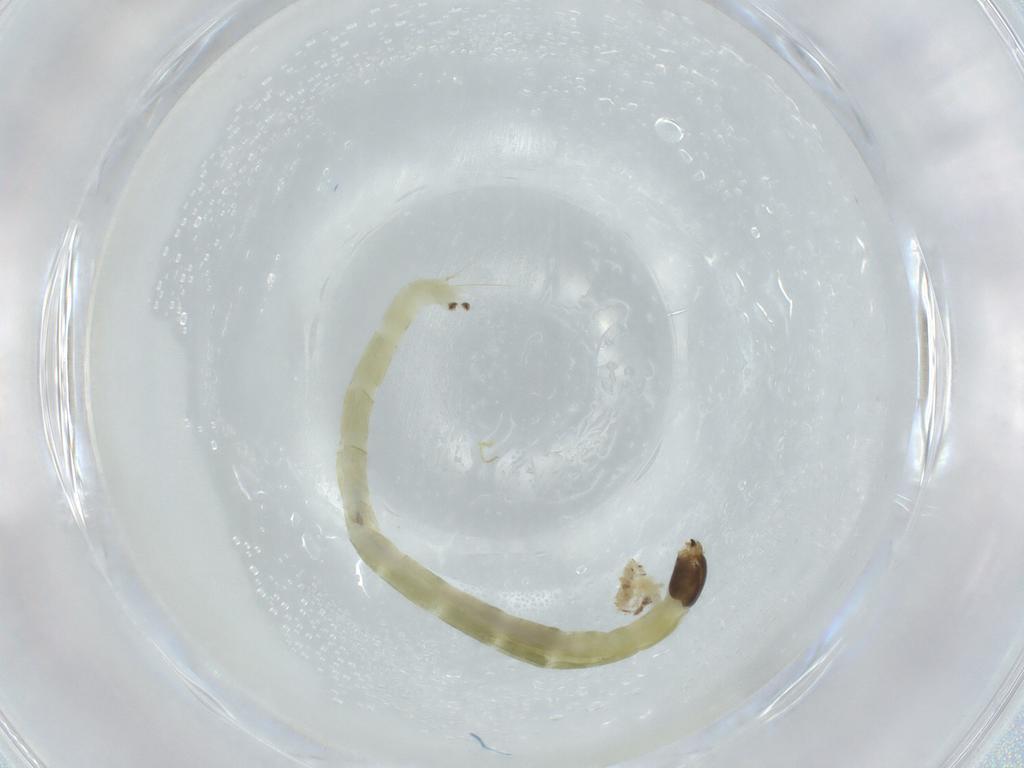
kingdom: Animalia
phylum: Arthropoda
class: Insecta
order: Diptera
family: Chironomidae
